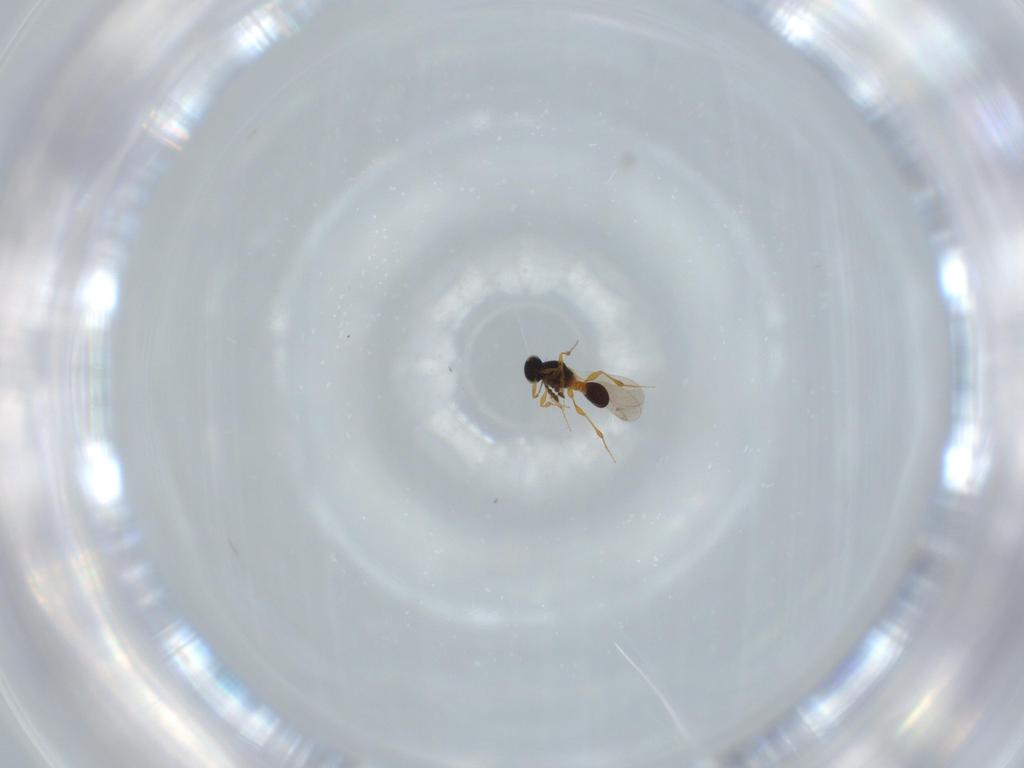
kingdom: Animalia
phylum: Arthropoda
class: Insecta
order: Hymenoptera
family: Platygastridae
